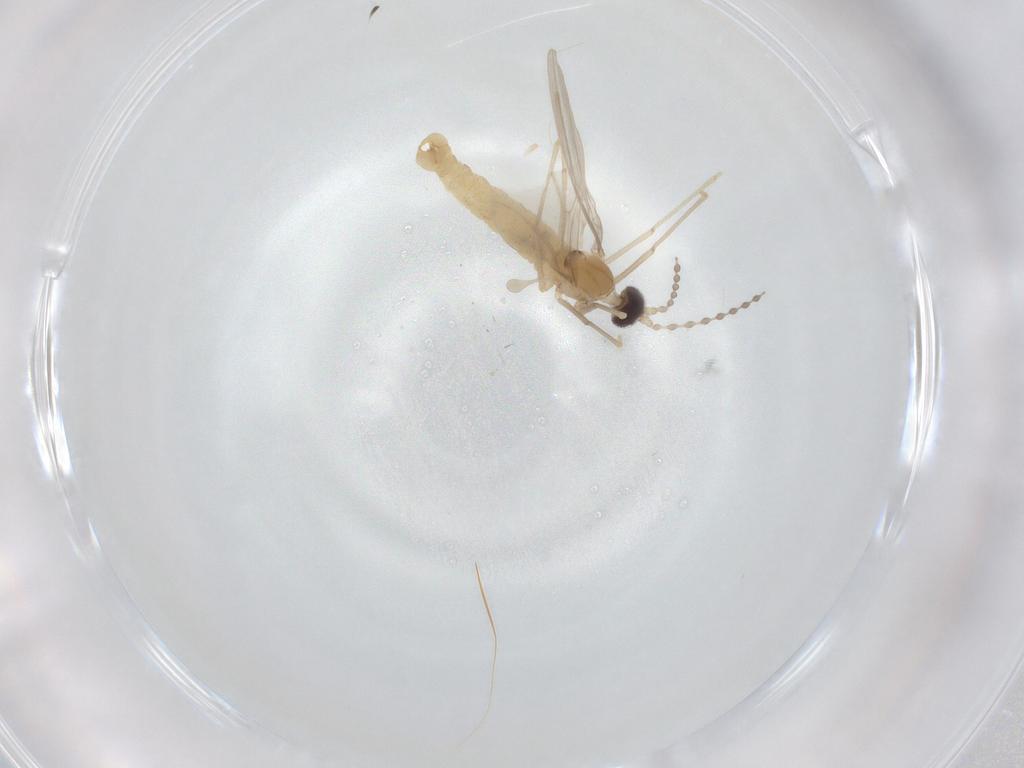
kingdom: Animalia
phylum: Arthropoda
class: Insecta
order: Diptera
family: Cecidomyiidae
